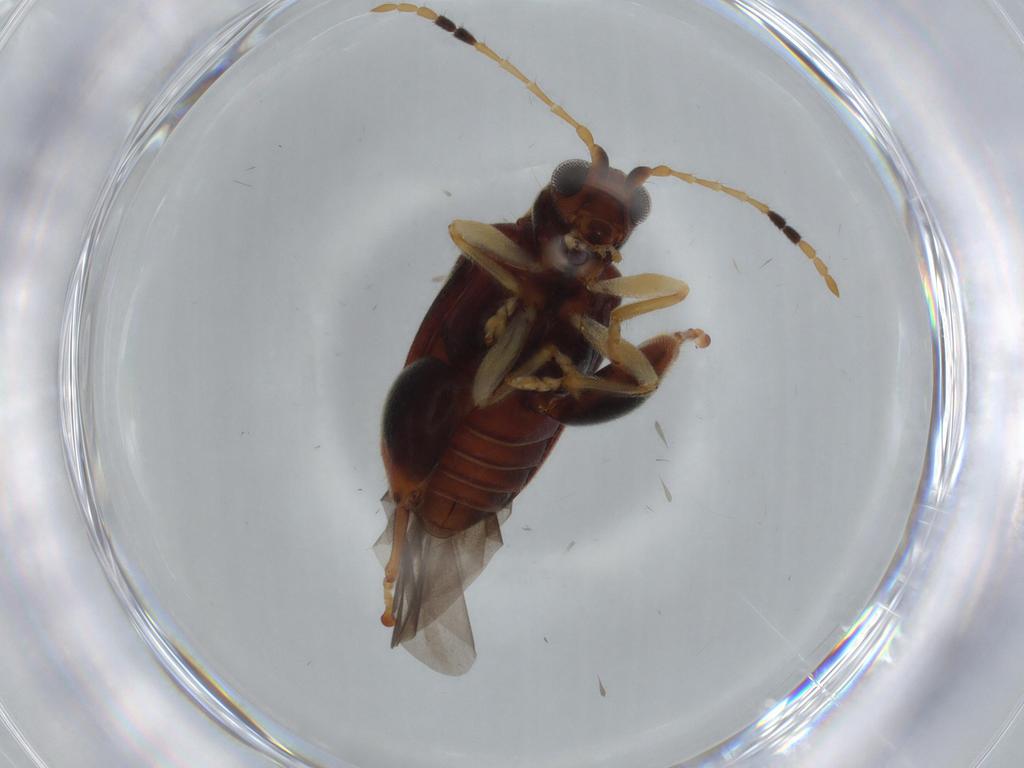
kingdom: Animalia
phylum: Arthropoda
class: Insecta
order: Coleoptera
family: Chrysomelidae
